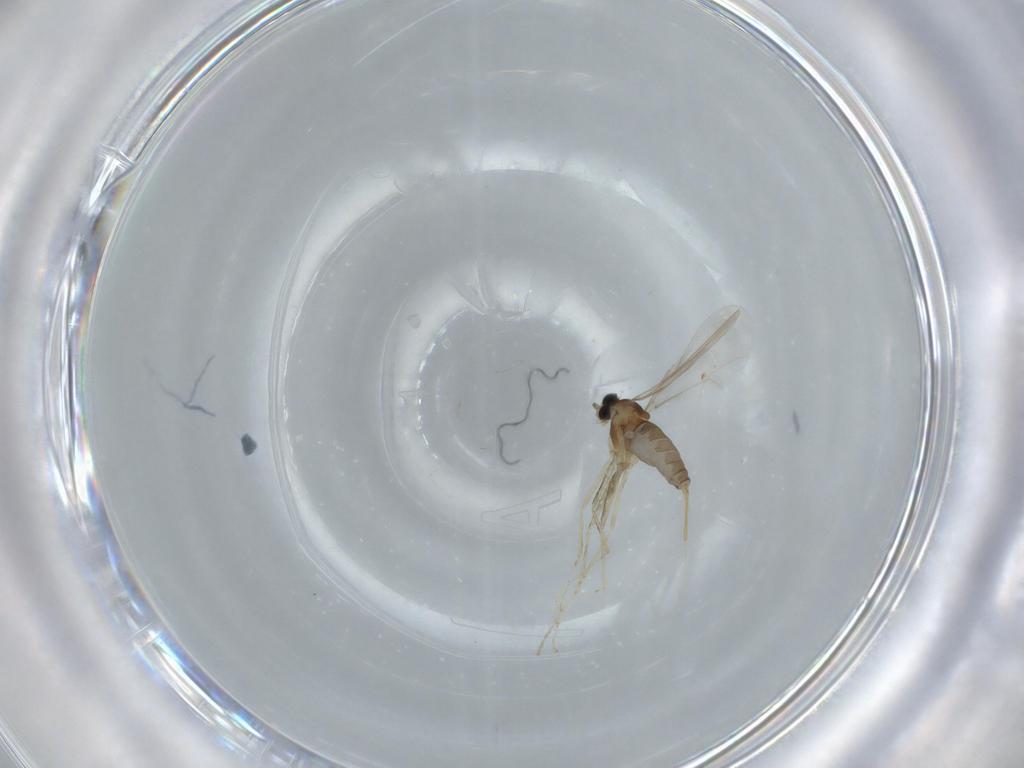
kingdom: Animalia
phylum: Arthropoda
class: Insecta
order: Diptera
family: Cecidomyiidae
